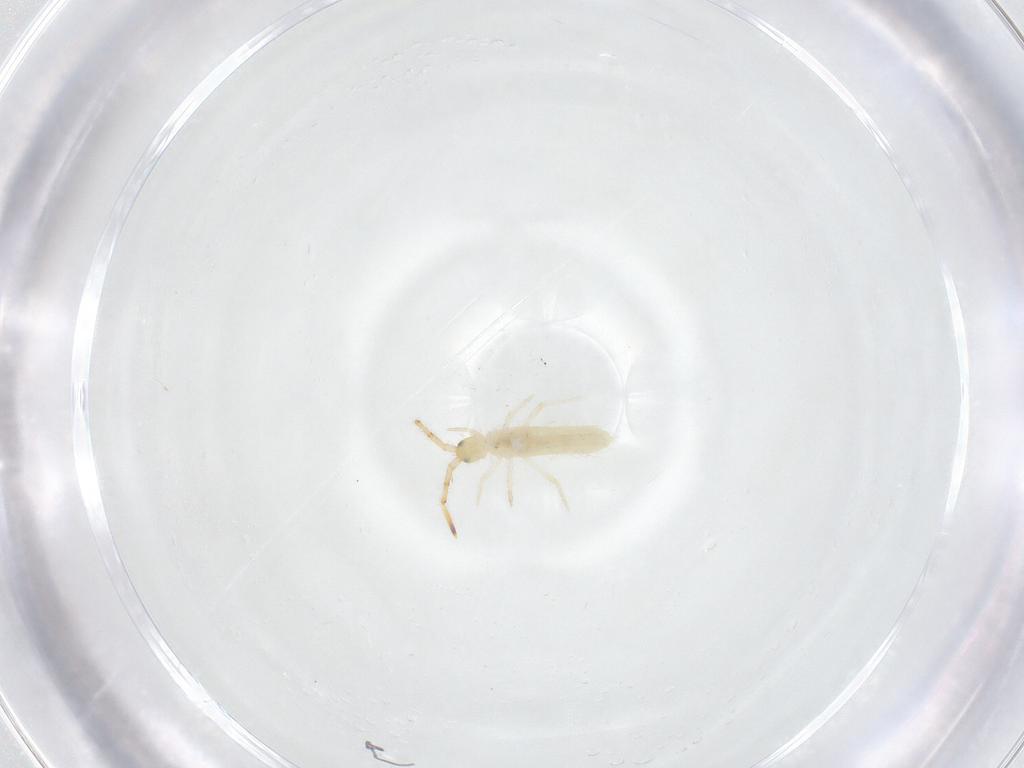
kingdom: Animalia
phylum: Arthropoda
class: Collembola
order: Entomobryomorpha
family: Entomobryidae
